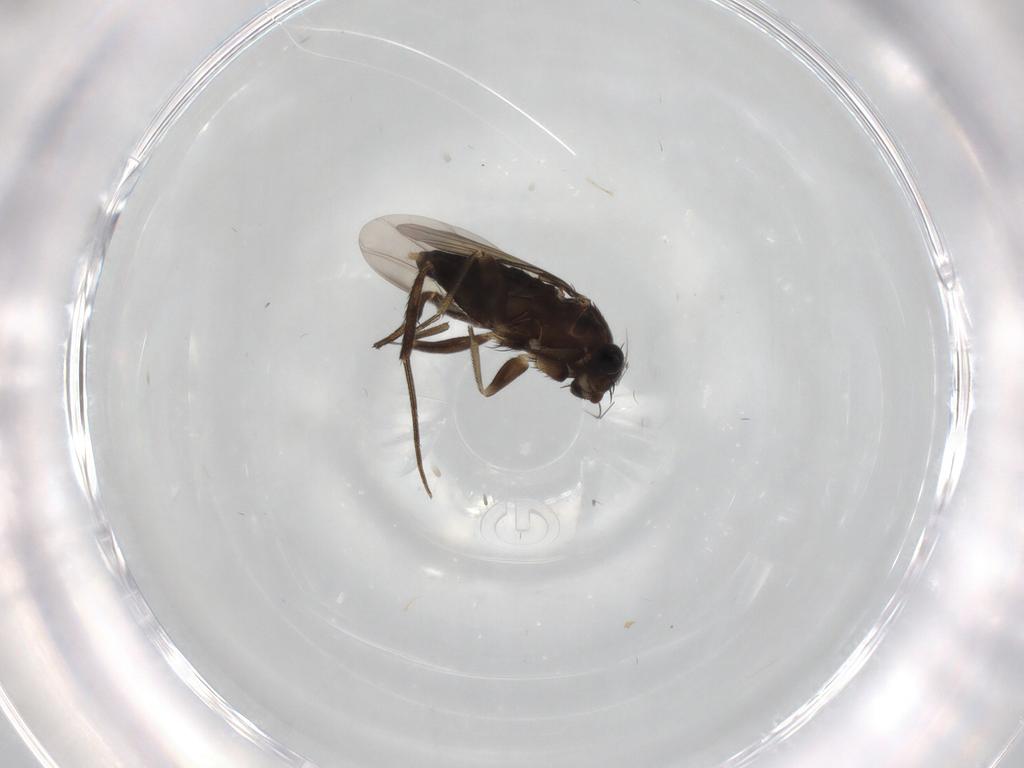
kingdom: Animalia
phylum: Arthropoda
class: Insecta
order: Diptera
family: Phoridae
